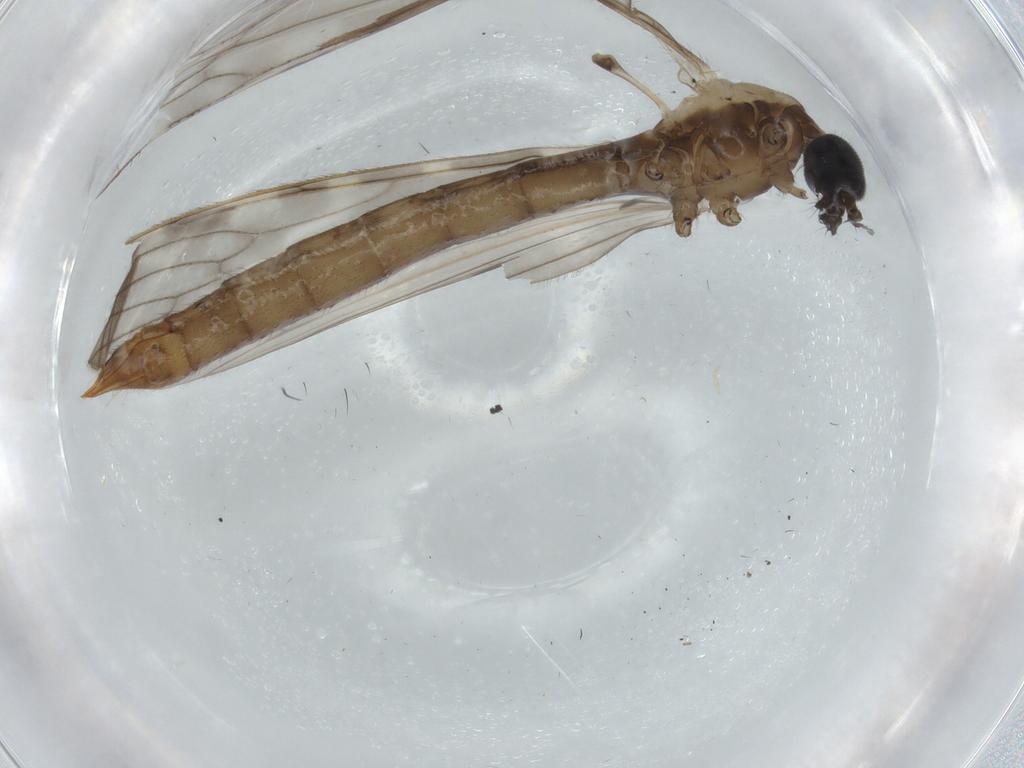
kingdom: Animalia
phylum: Arthropoda
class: Insecta
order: Diptera
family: Limoniidae
